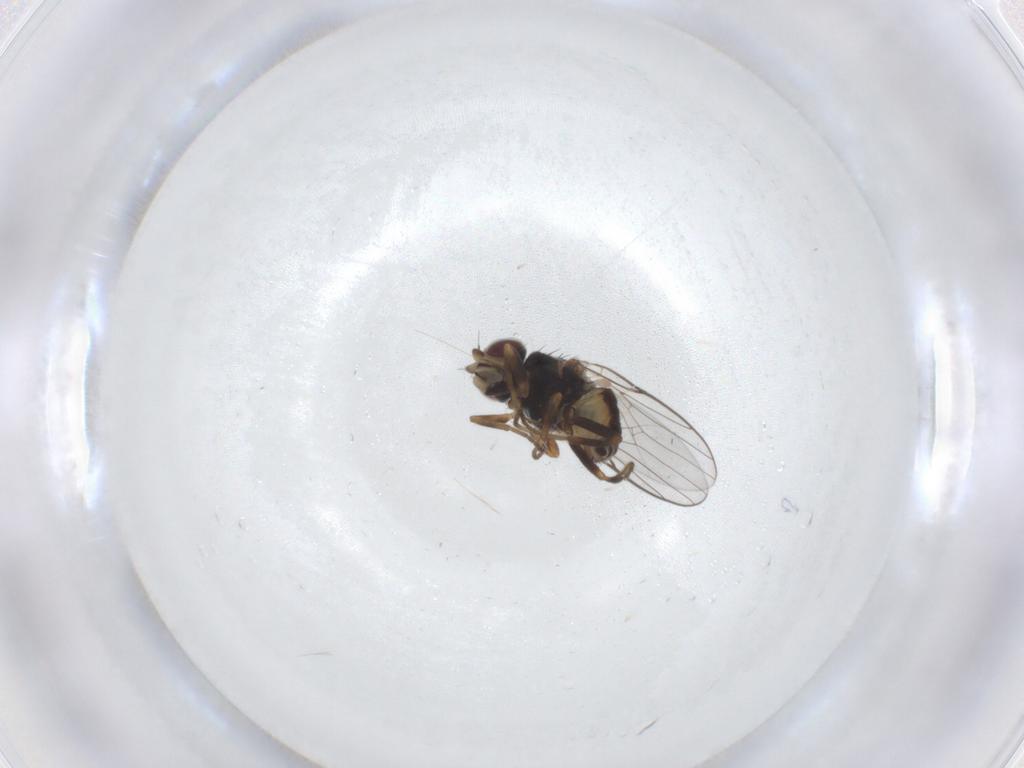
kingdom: Animalia
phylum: Arthropoda
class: Insecta
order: Diptera
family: Chloropidae
